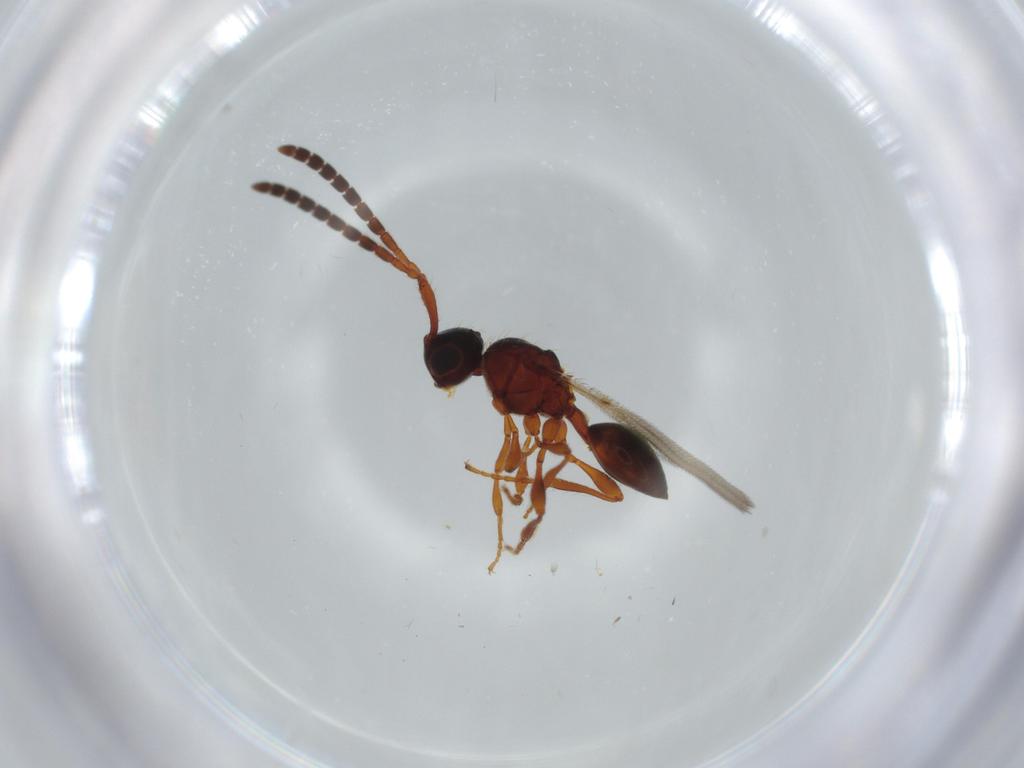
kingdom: Animalia
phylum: Arthropoda
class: Insecta
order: Hymenoptera
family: Diapriidae
